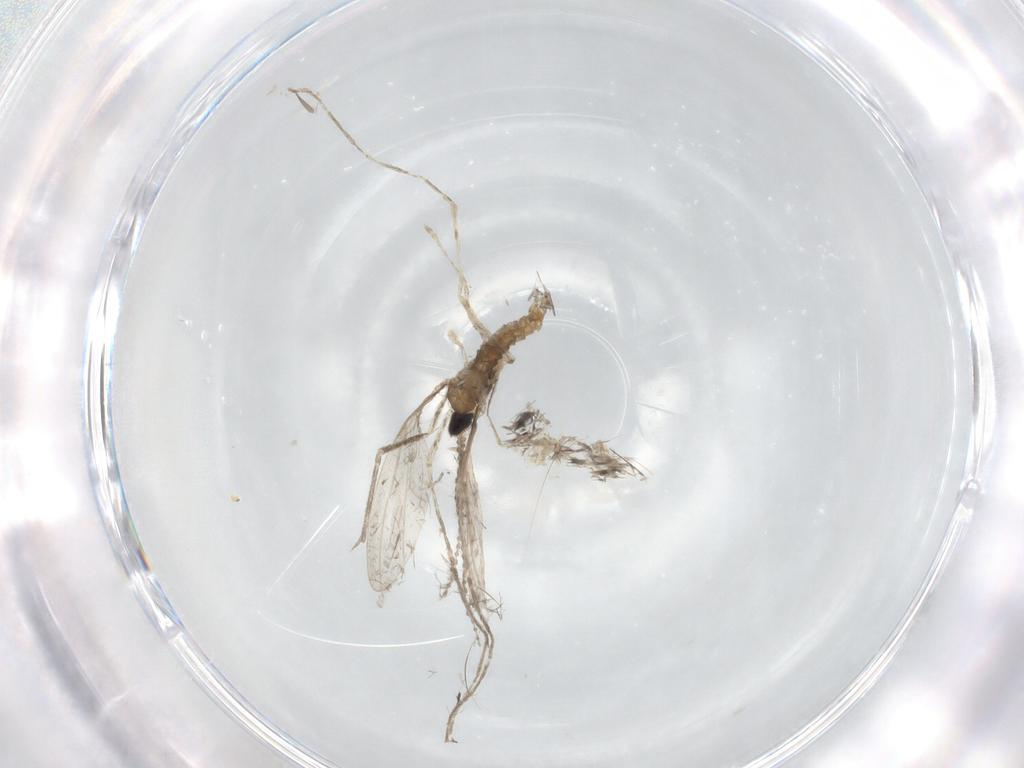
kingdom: Animalia
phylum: Arthropoda
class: Insecta
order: Diptera
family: Cecidomyiidae
